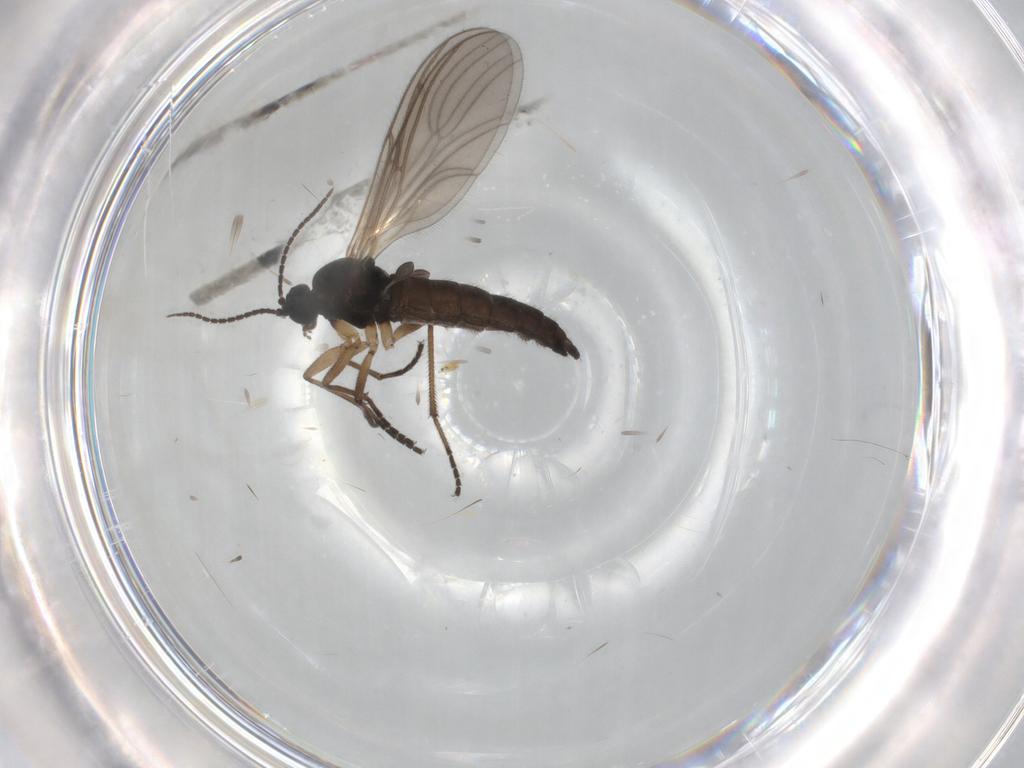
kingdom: Animalia
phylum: Arthropoda
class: Insecta
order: Diptera
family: Sciaridae
